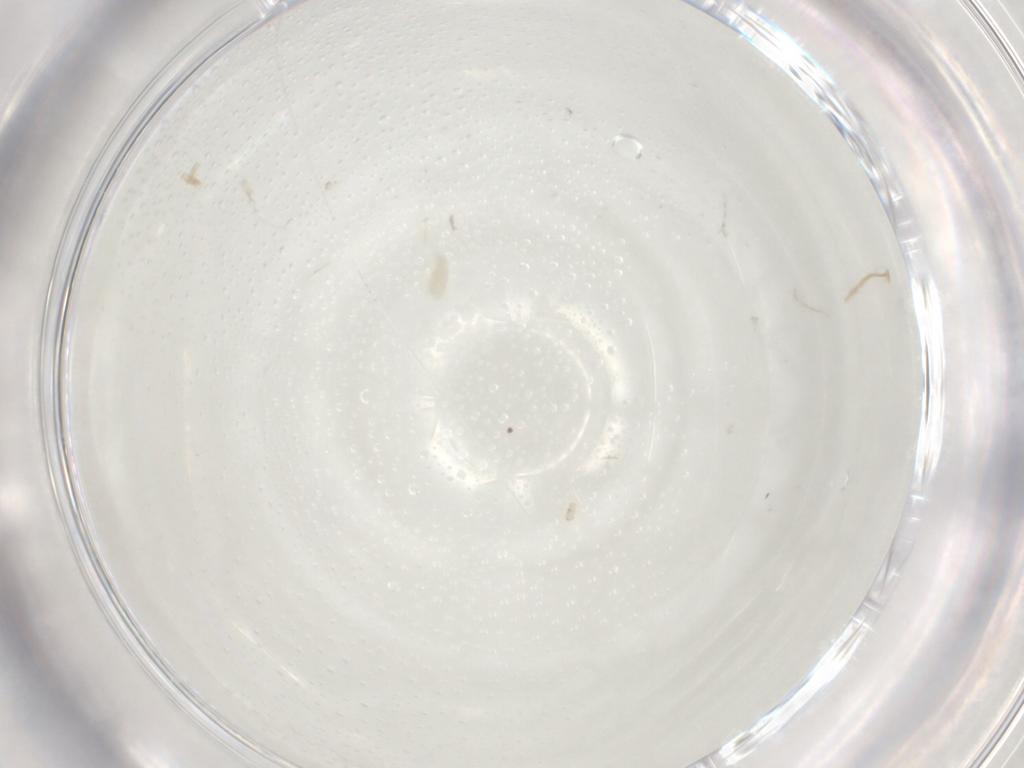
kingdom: Animalia
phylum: Arthropoda
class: Arachnida
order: Trombidiformes
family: Eupodidae
